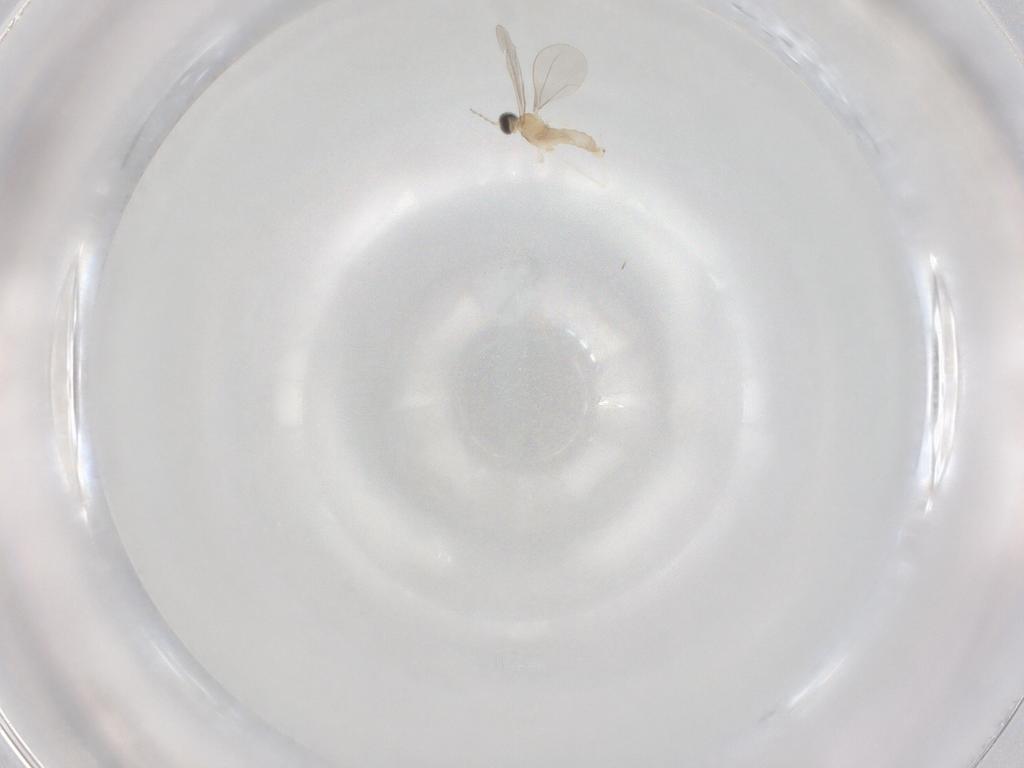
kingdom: Animalia
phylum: Arthropoda
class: Insecta
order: Diptera
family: Cecidomyiidae
